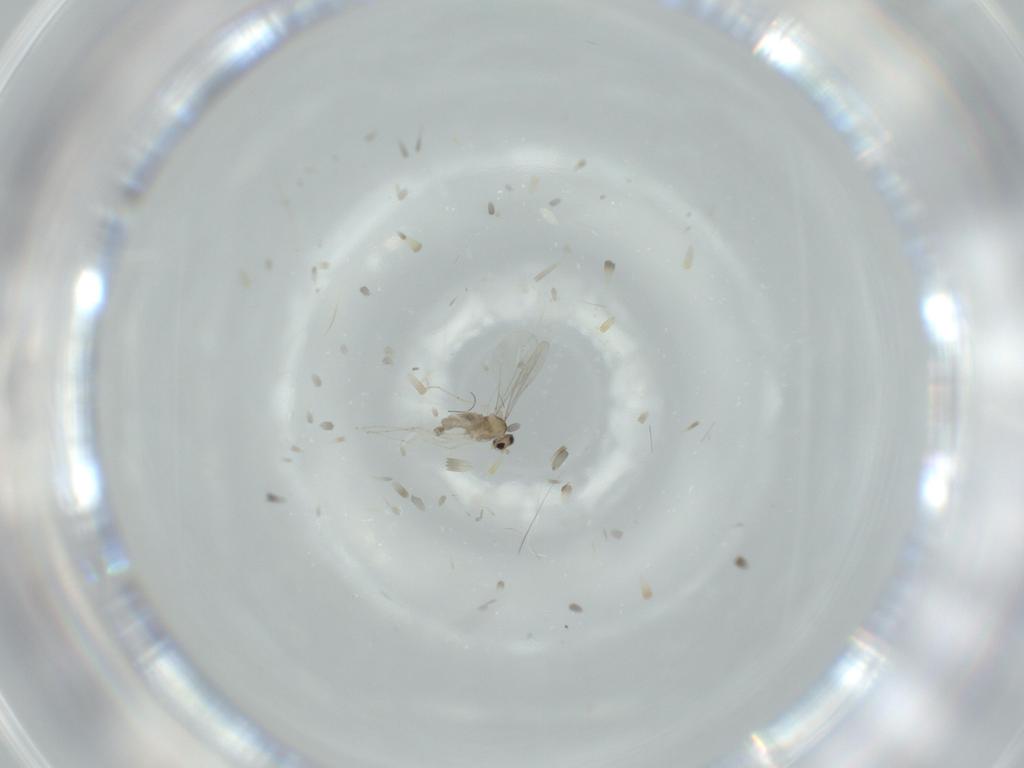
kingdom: Animalia
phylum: Arthropoda
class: Insecta
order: Diptera
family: Cecidomyiidae
